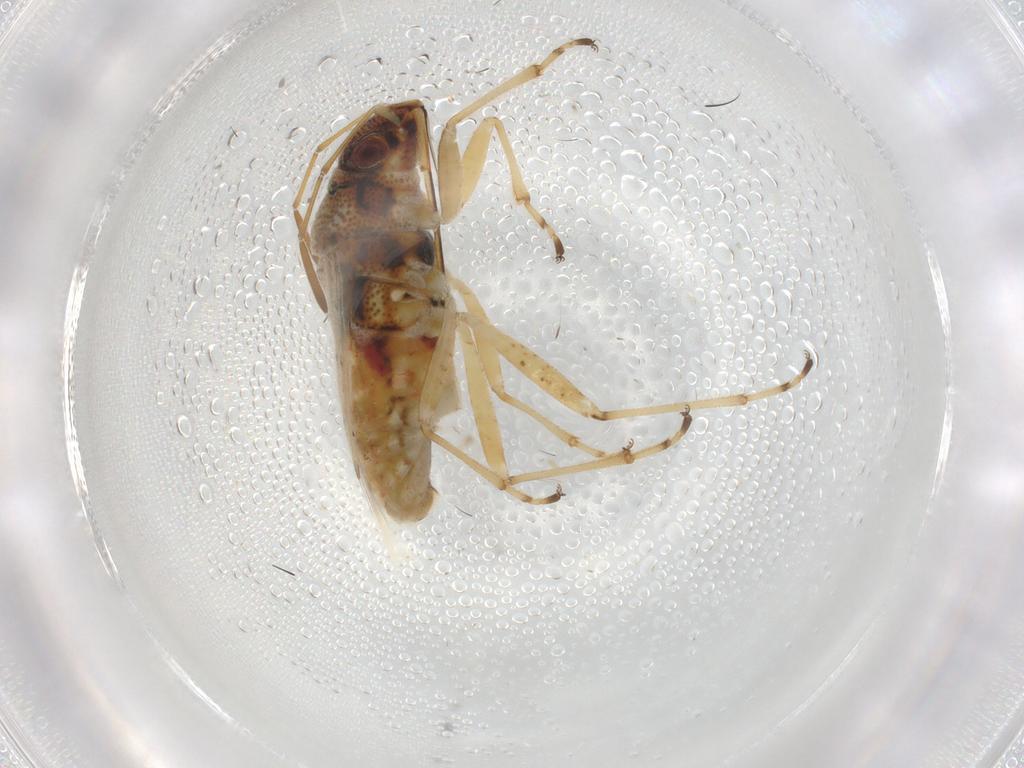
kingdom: Animalia
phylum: Arthropoda
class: Insecta
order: Hemiptera
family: Lygaeidae
